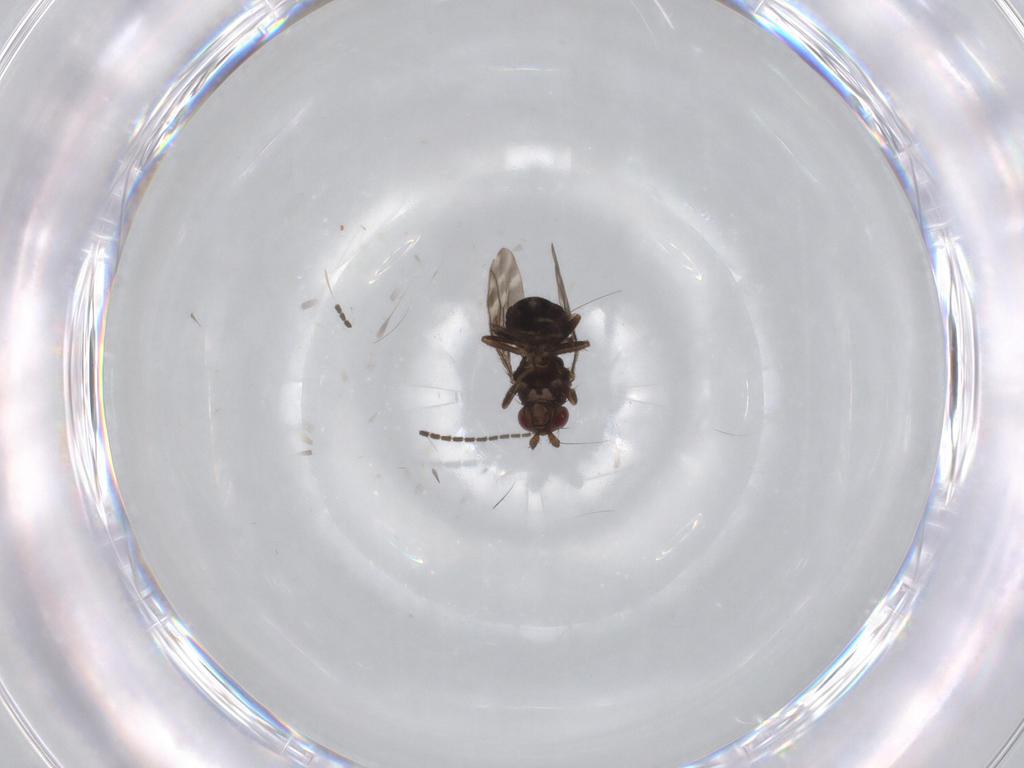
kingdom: Animalia
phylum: Arthropoda
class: Insecta
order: Diptera
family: Sphaeroceridae
